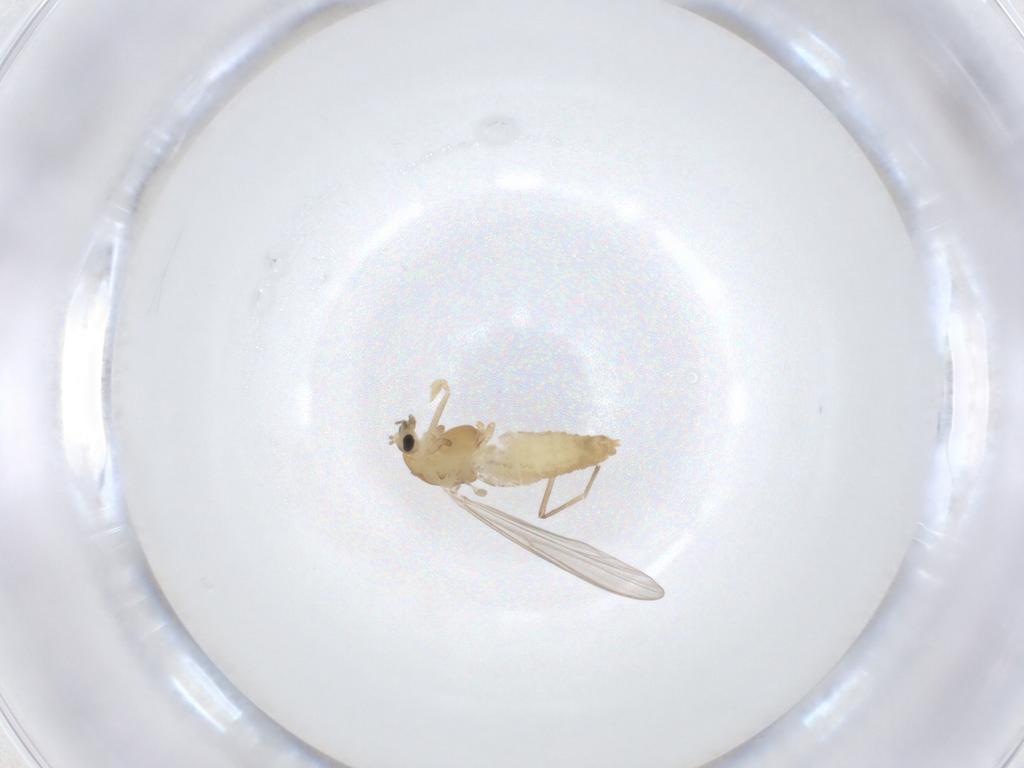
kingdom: Animalia
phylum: Arthropoda
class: Insecta
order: Diptera
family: Chironomidae
